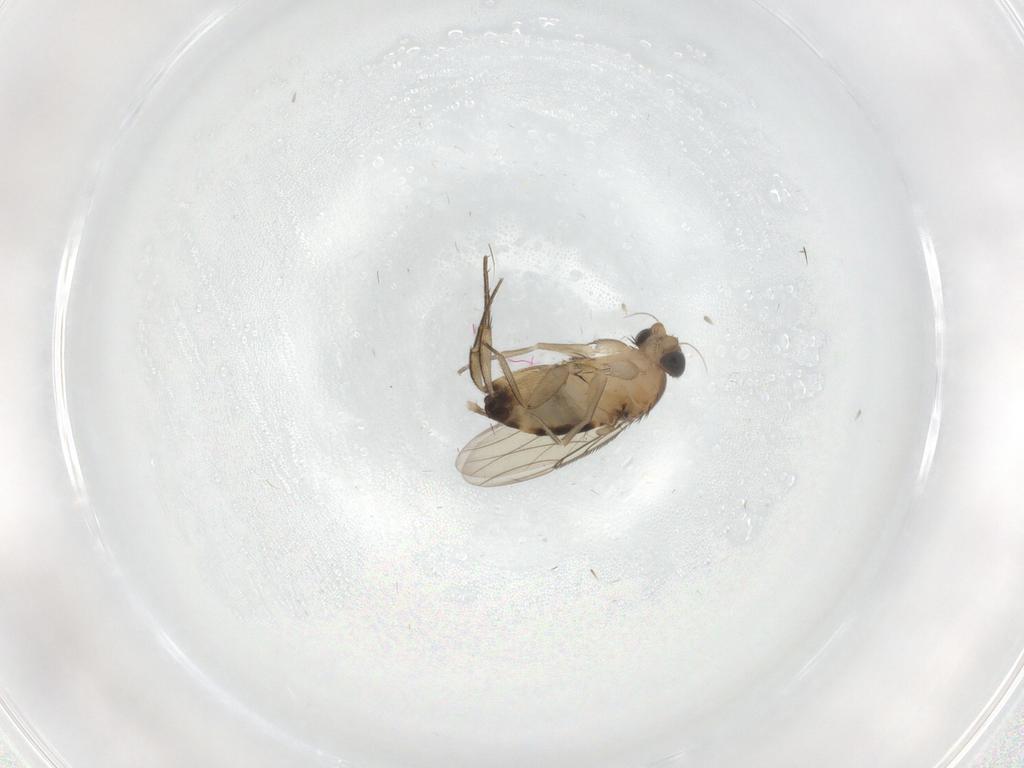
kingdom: Animalia
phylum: Arthropoda
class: Insecta
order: Diptera
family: Phoridae
